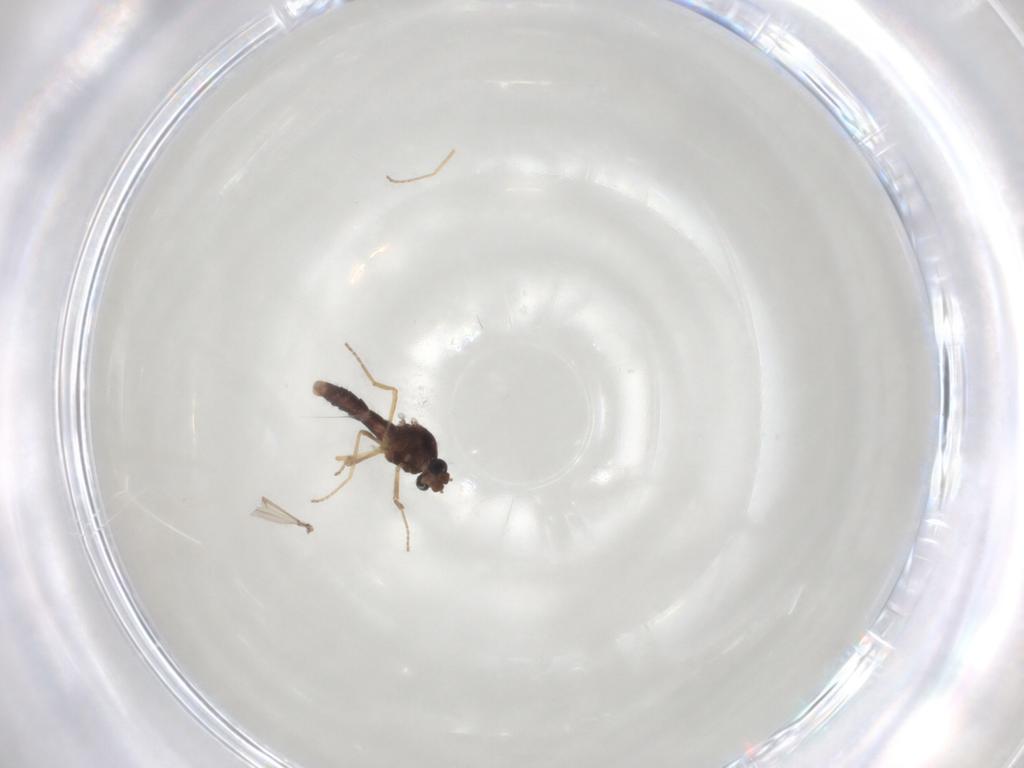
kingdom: Animalia
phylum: Arthropoda
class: Insecta
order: Diptera
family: Ceratopogonidae
